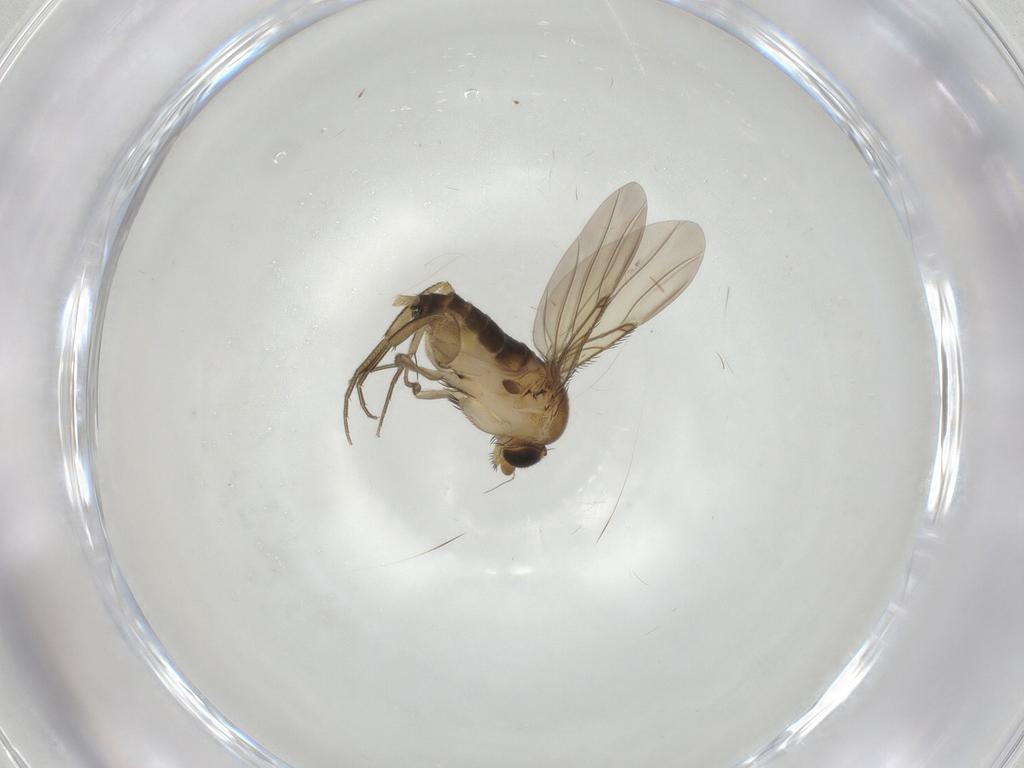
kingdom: Animalia
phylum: Arthropoda
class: Insecta
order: Diptera
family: Phoridae
